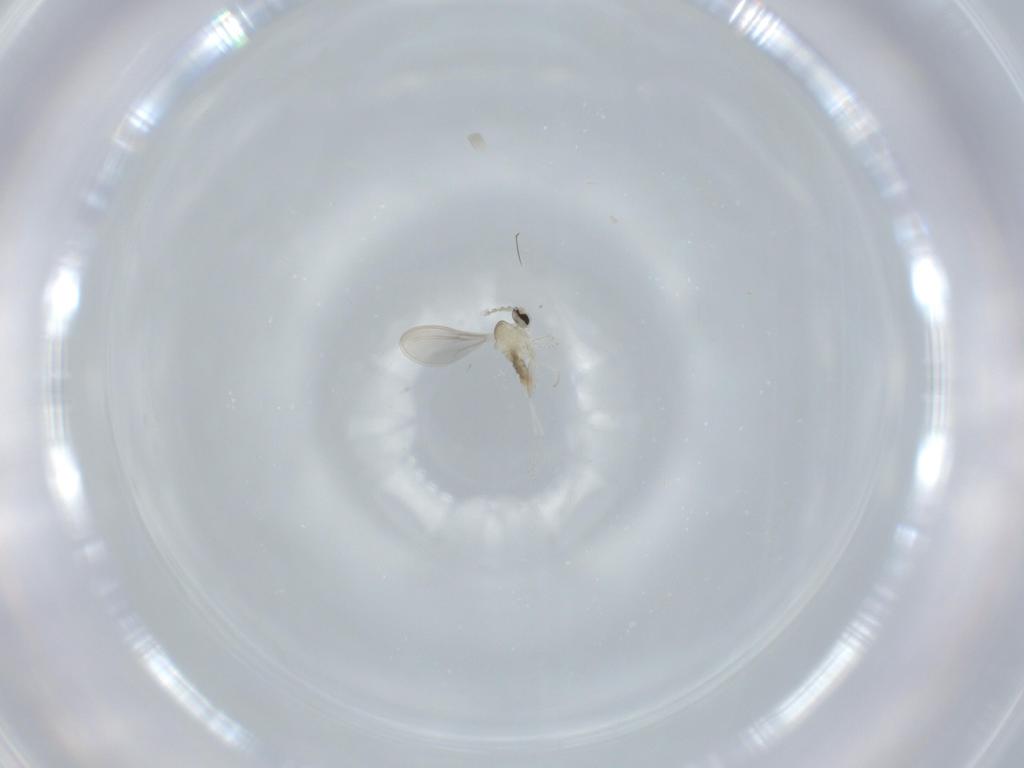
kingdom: Animalia
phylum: Arthropoda
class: Insecta
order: Diptera
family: Cecidomyiidae
